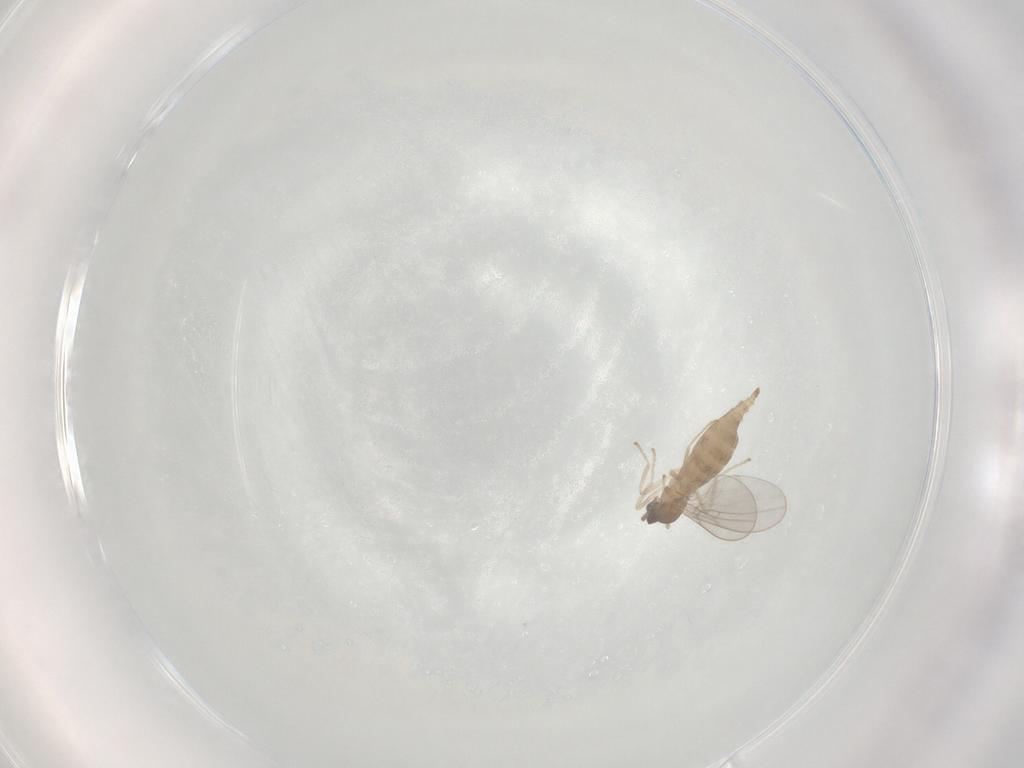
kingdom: Animalia
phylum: Arthropoda
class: Insecta
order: Diptera
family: Cecidomyiidae
